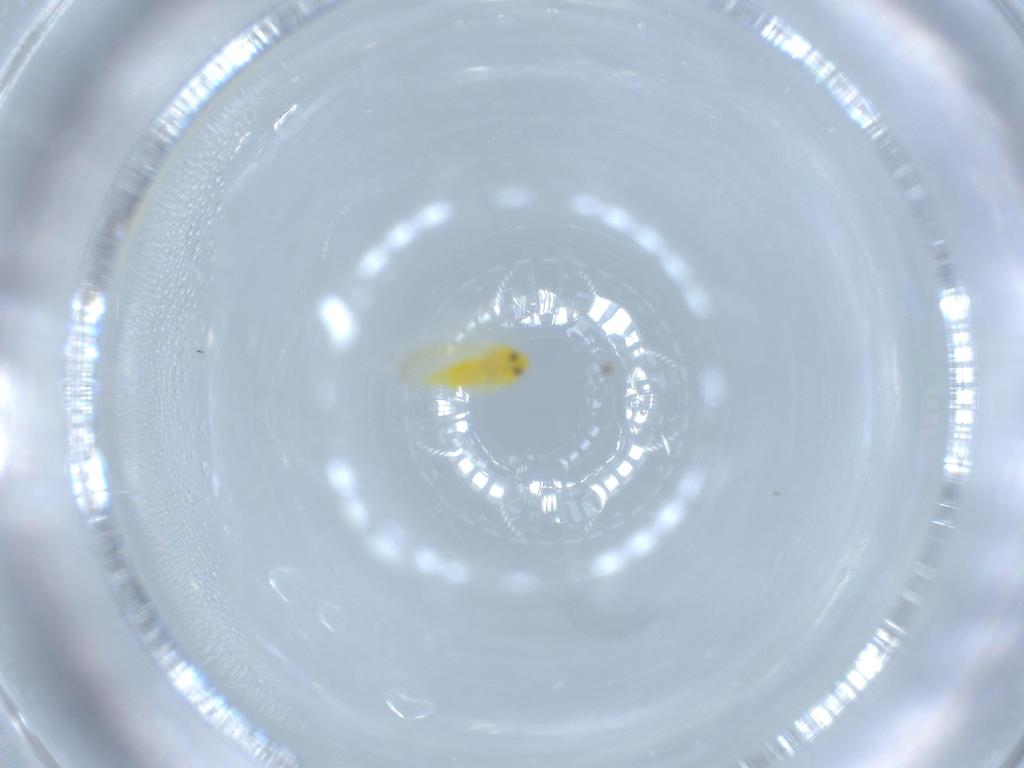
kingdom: Animalia
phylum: Arthropoda
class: Insecta
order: Hemiptera
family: Aleyrodidae
